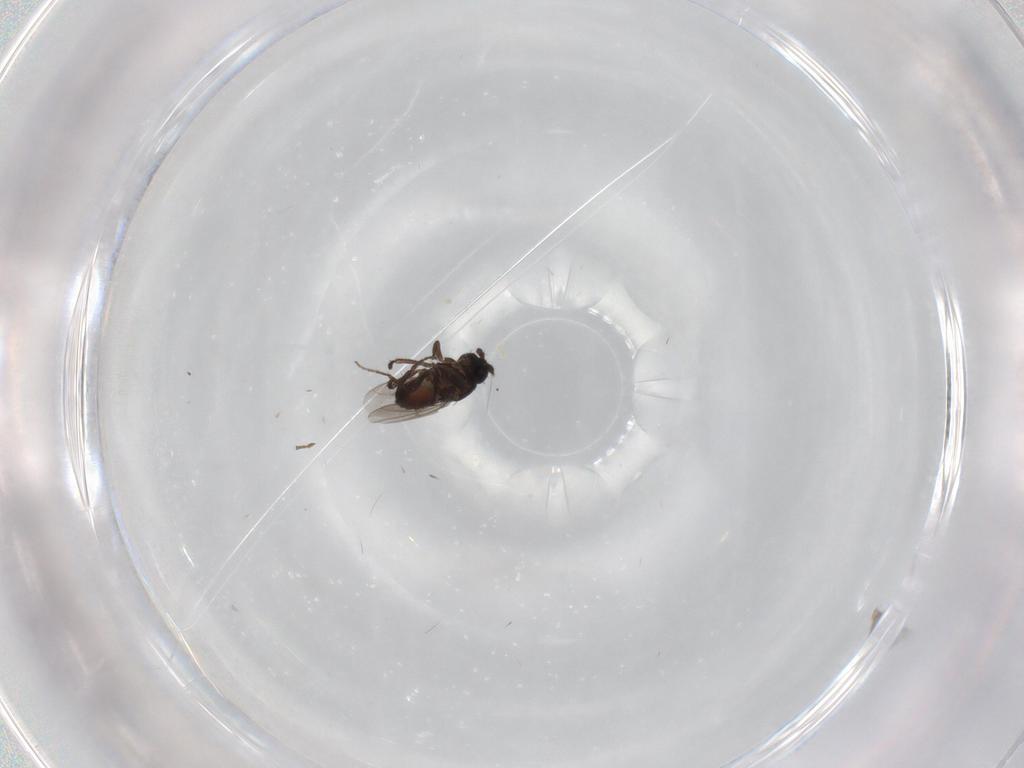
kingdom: Animalia
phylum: Arthropoda
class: Insecta
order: Diptera
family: Sphaeroceridae
